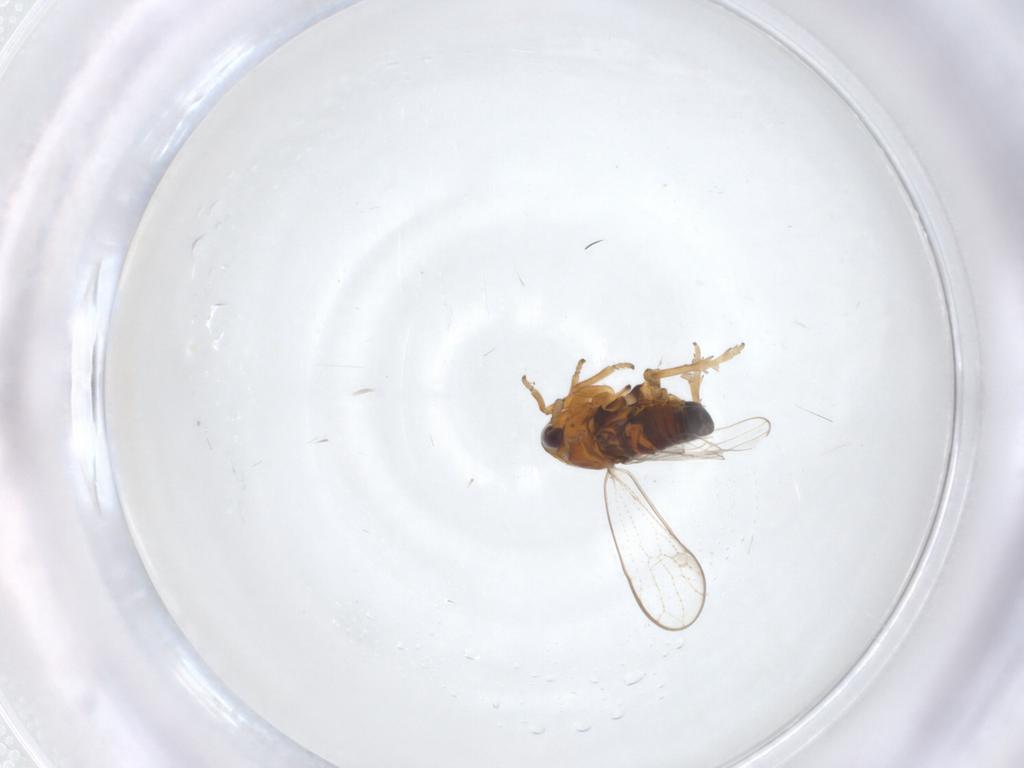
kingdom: Animalia
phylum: Arthropoda
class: Insecta
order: Hemiptera
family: Delphacidae
